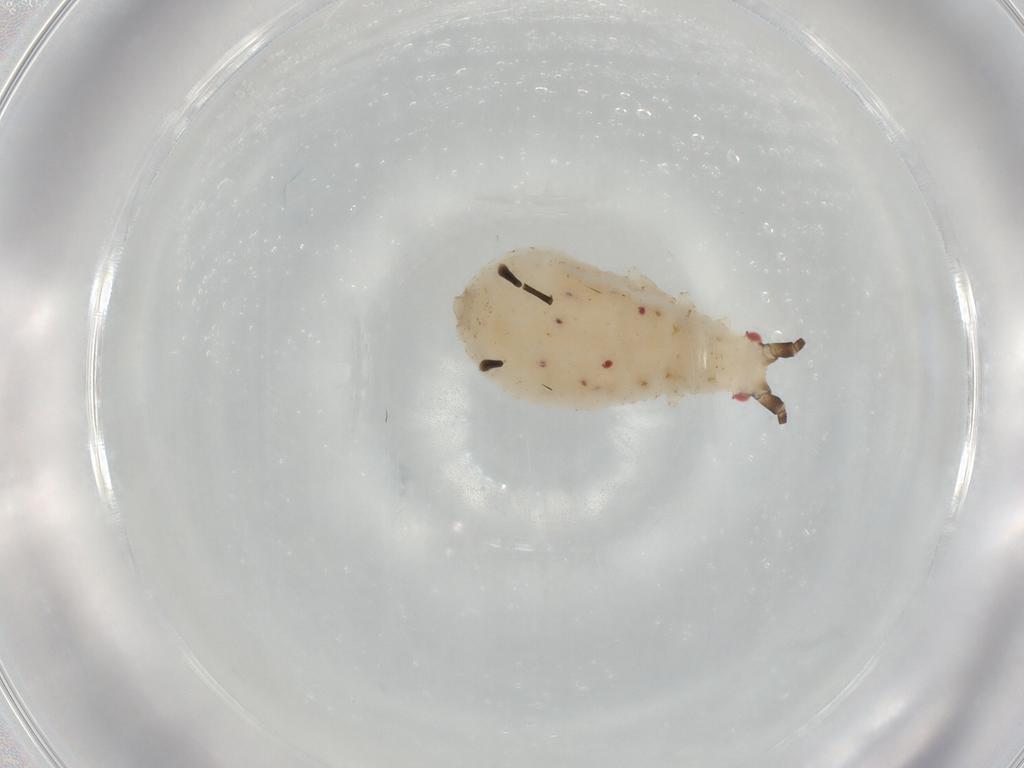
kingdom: Animalia
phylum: Arthropoda
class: Insecta
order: Hemiptera
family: Aphididae
